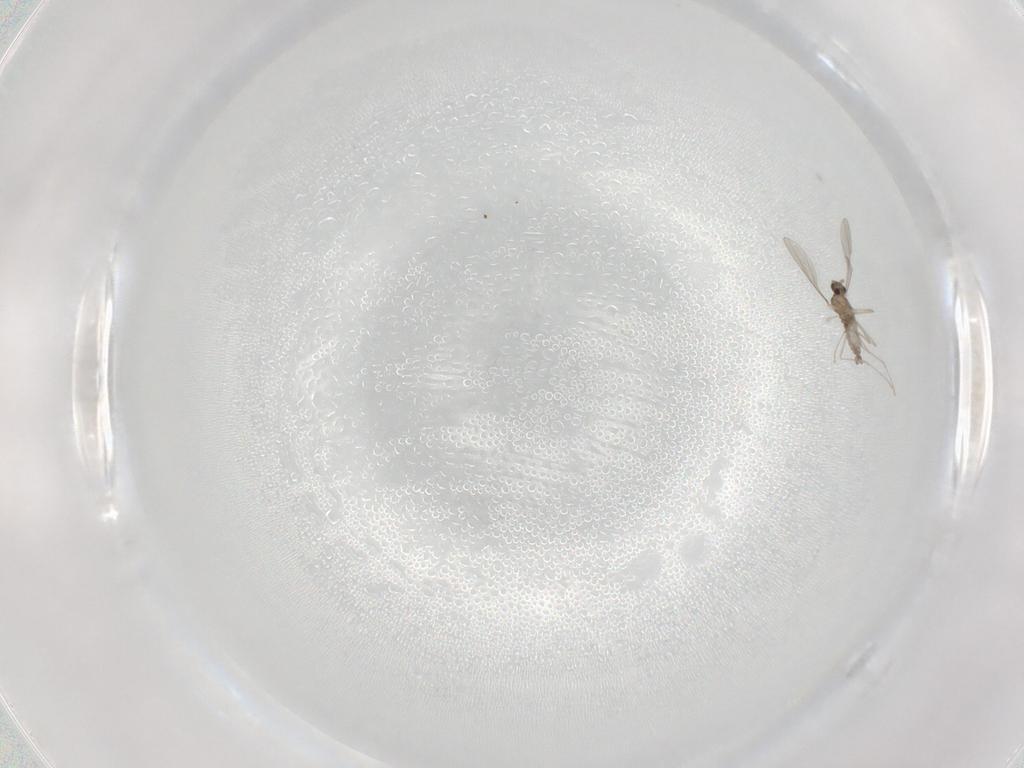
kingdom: Animalia
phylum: Arthropoda
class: Insecta
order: Diptera
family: Cecidomyiidae
